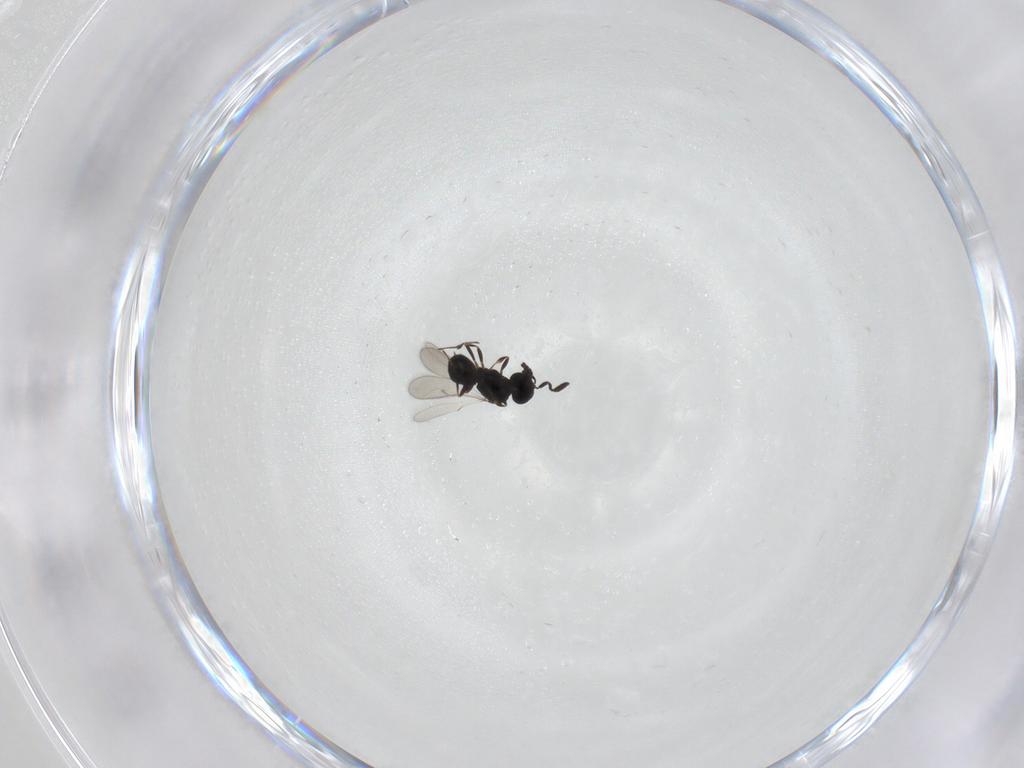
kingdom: Animalia
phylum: Arthropoda
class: Insecta
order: Hymenoptera
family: Scelionidae
